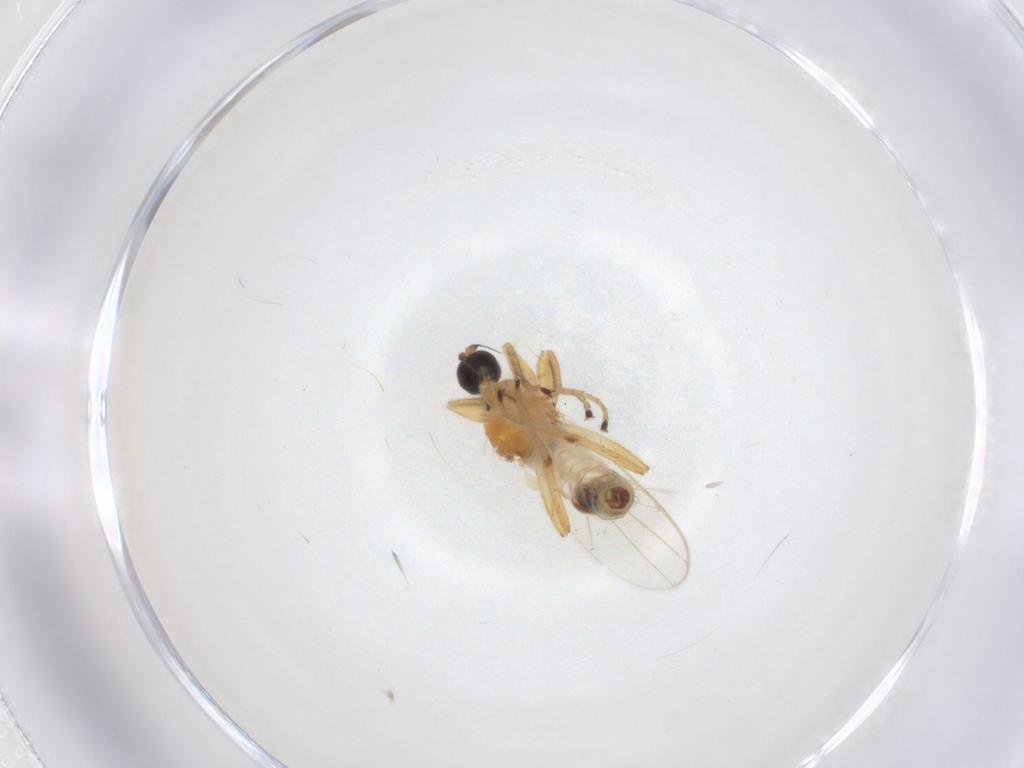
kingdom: Animalia
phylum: Arthropoda
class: Insecta
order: Diptera
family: Hybotidae
